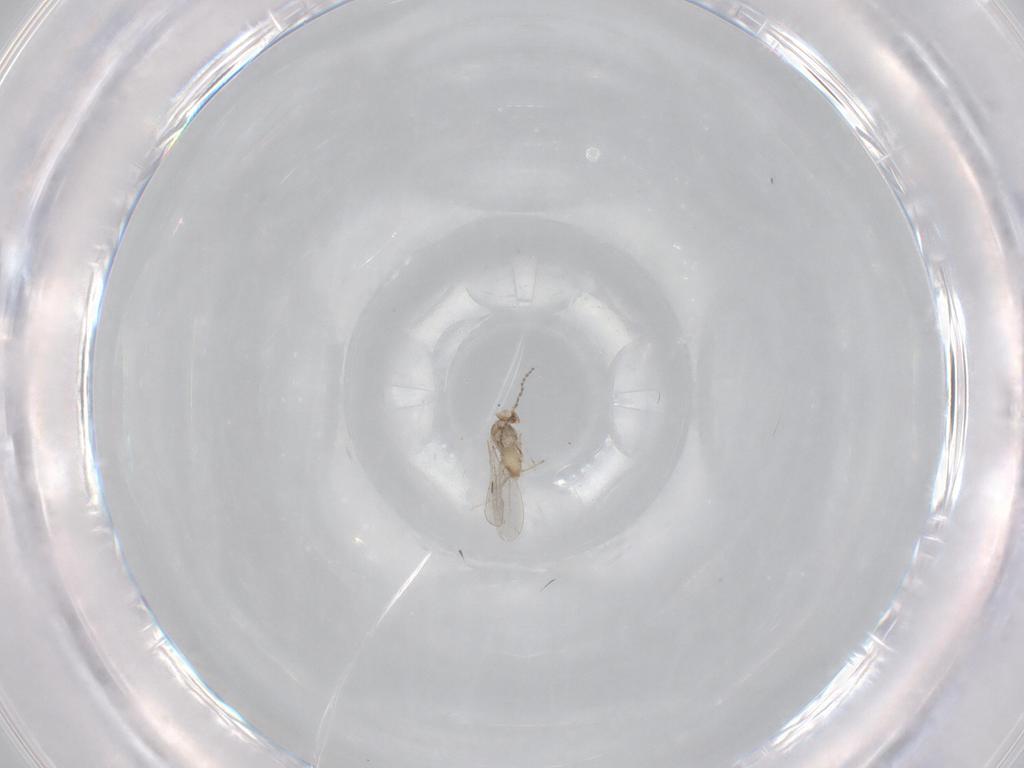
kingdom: Animalia
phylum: Arthropoda
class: Insecta
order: Diptera
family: Cecidomyiidae
